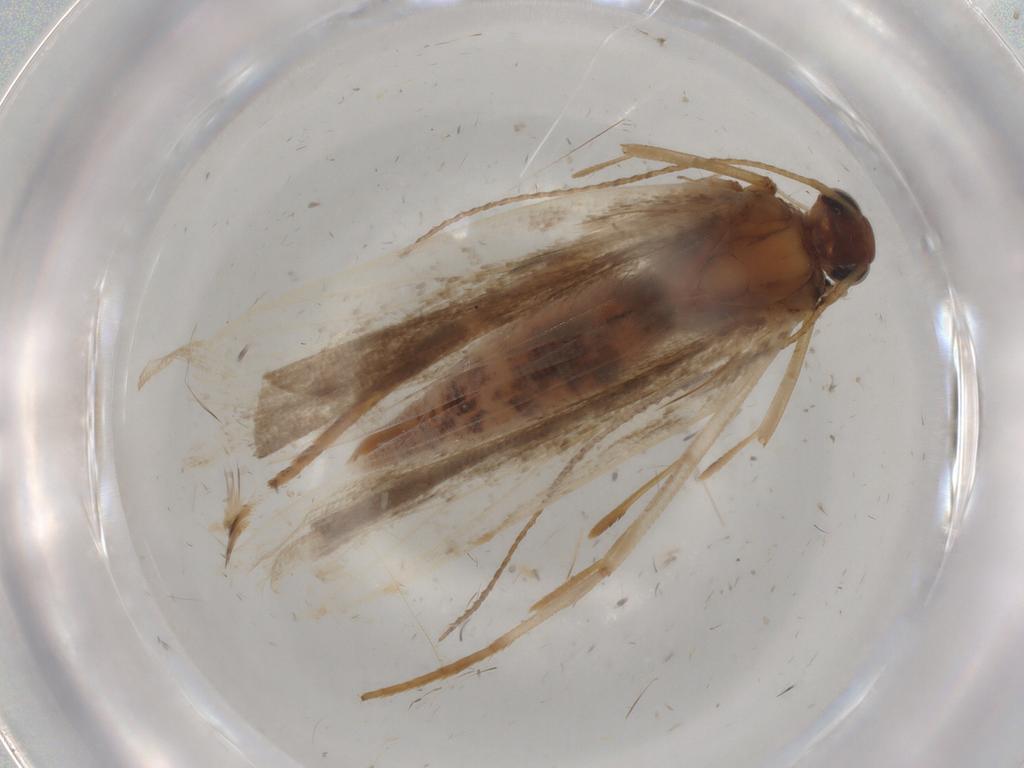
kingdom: Animalia
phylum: Arthropoda
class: Insecta
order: Lepidoptera
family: Gelechiidae
